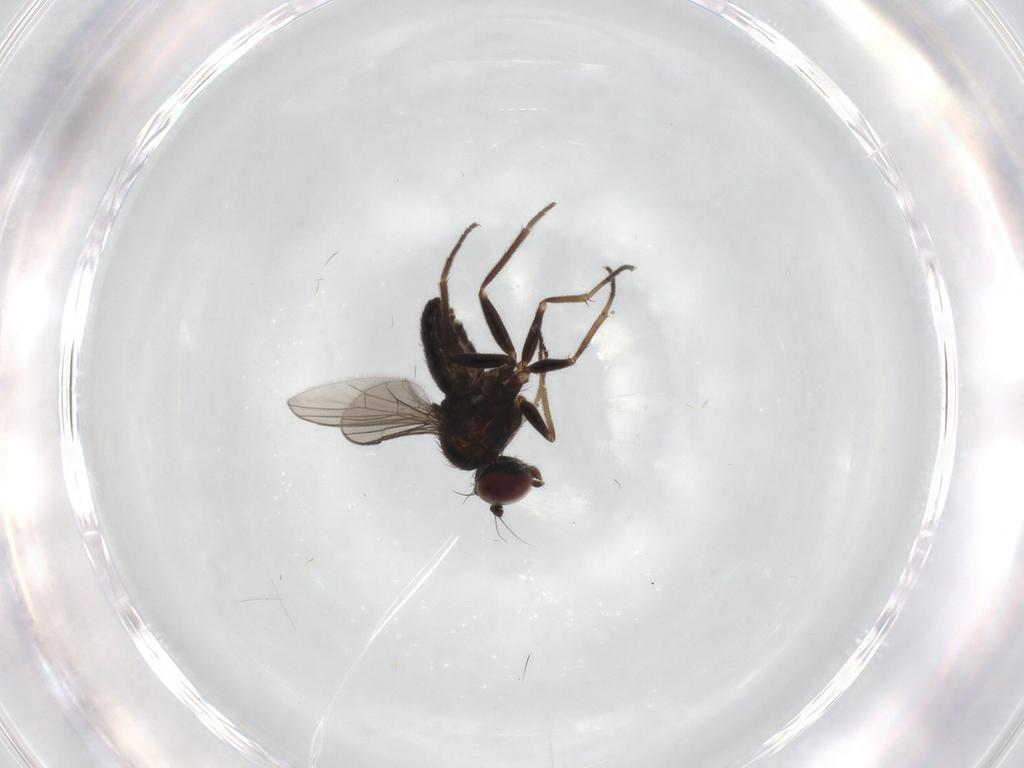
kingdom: Animalia
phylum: Arthropoda
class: Insecta
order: Diptera
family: Dolichopodidae
